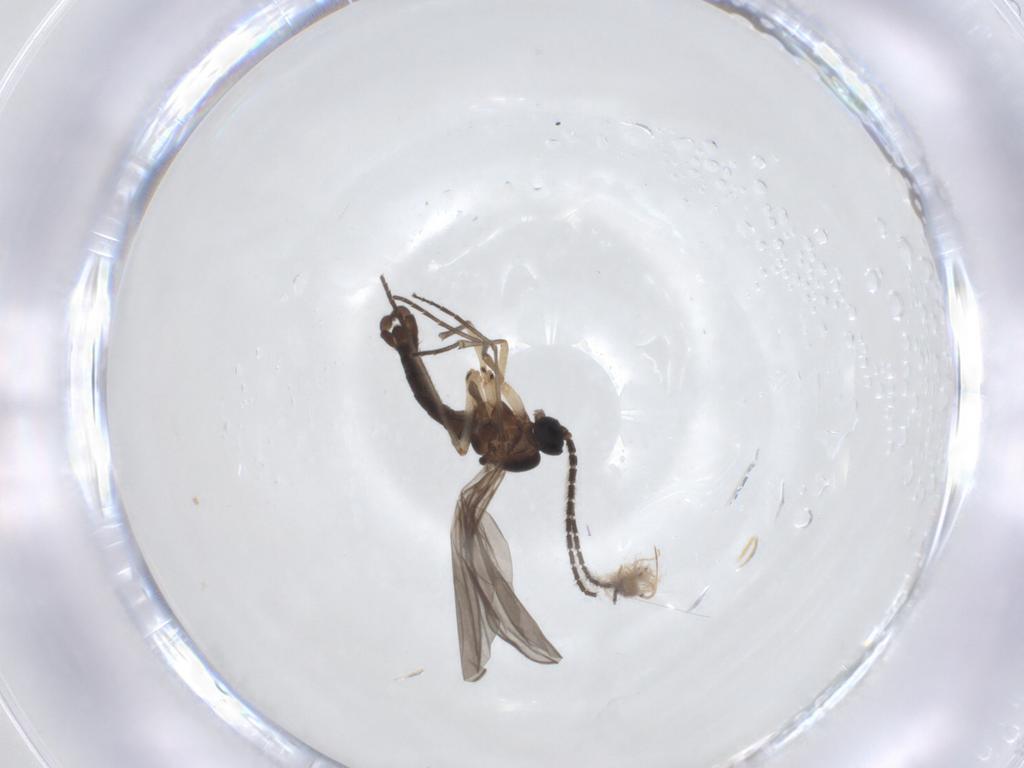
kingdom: Animalia
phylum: Arthropoda
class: Insecta
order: Diptera
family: Sciaridae
